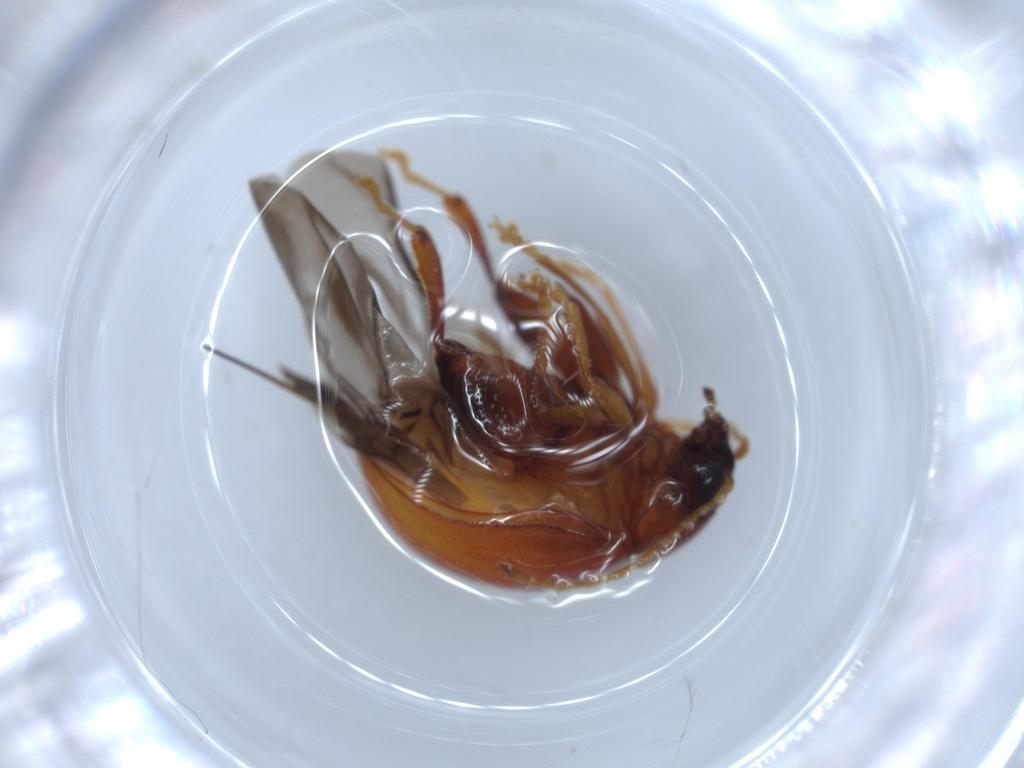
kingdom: Animalia
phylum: Arthropoda
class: Insecta
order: Coleoptera
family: Chrysomelidae
